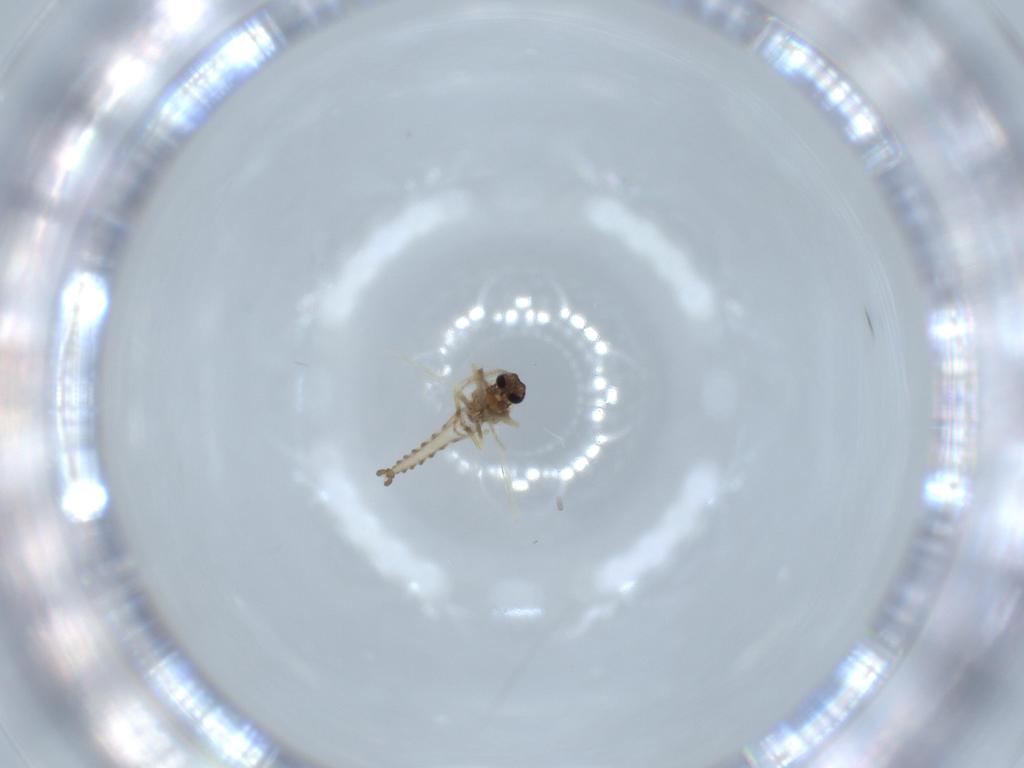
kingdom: Animalia
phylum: Arthropoda
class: Insecta
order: Diptera
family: Ceratopogonidae
